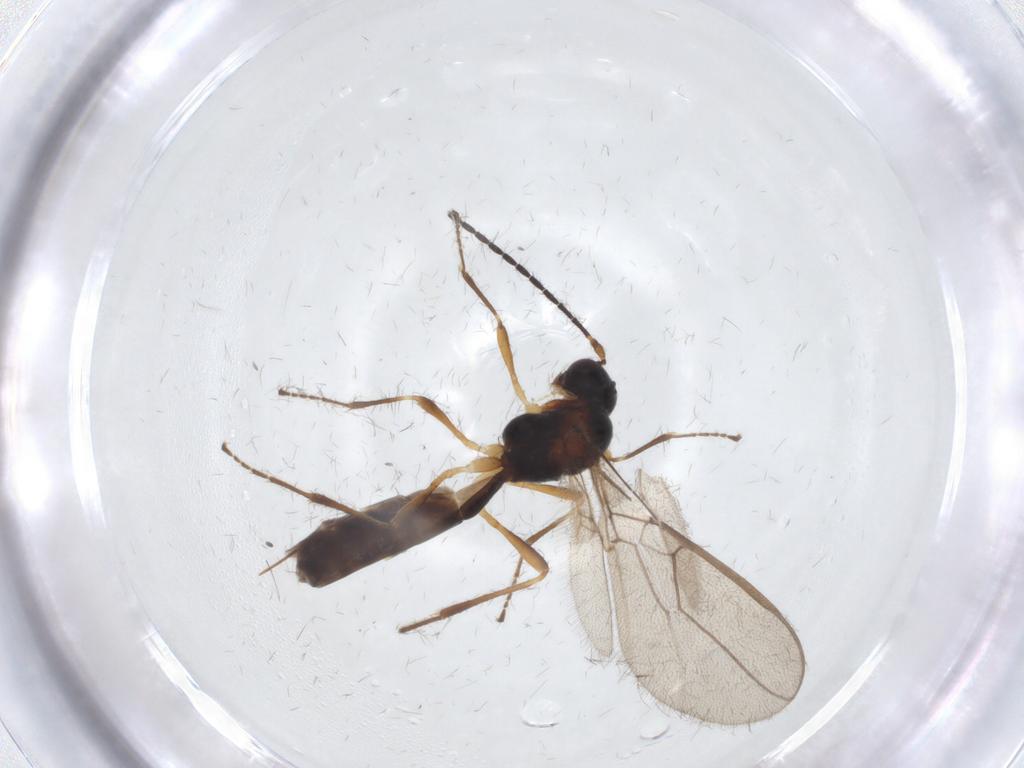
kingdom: Animalia
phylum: Arthropoda
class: Insecta
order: Hymenoptera
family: Braconidae
